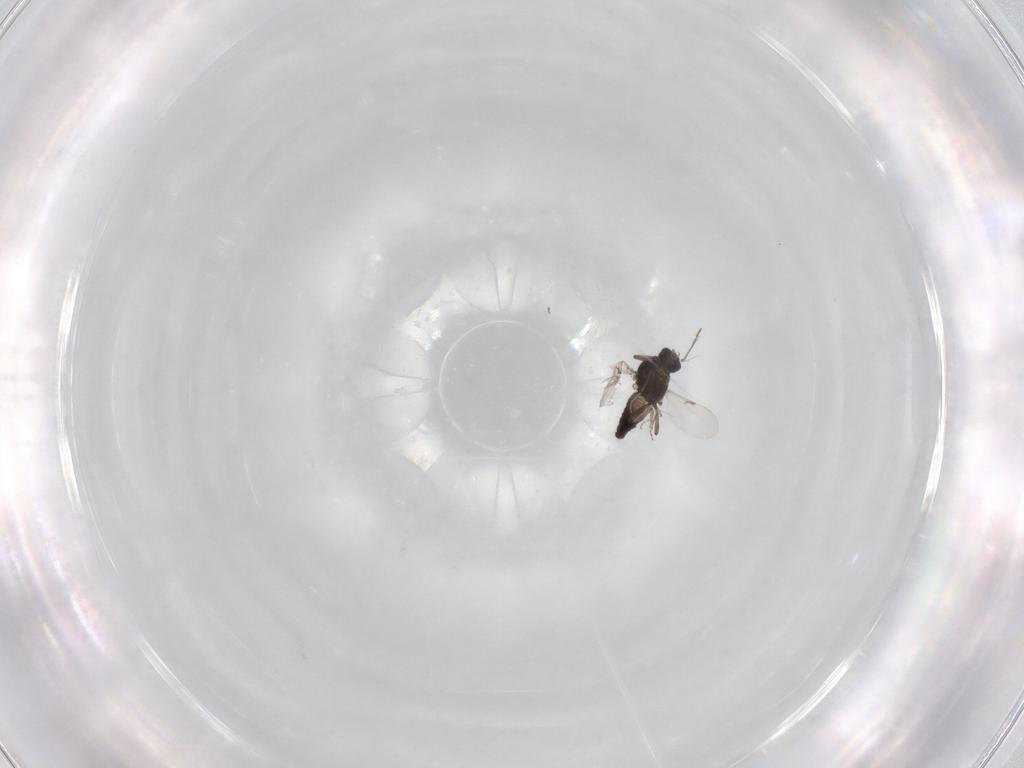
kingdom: Animalia
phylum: Arthropoda
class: Insecta
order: Diptera
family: Ceratopogonidae
